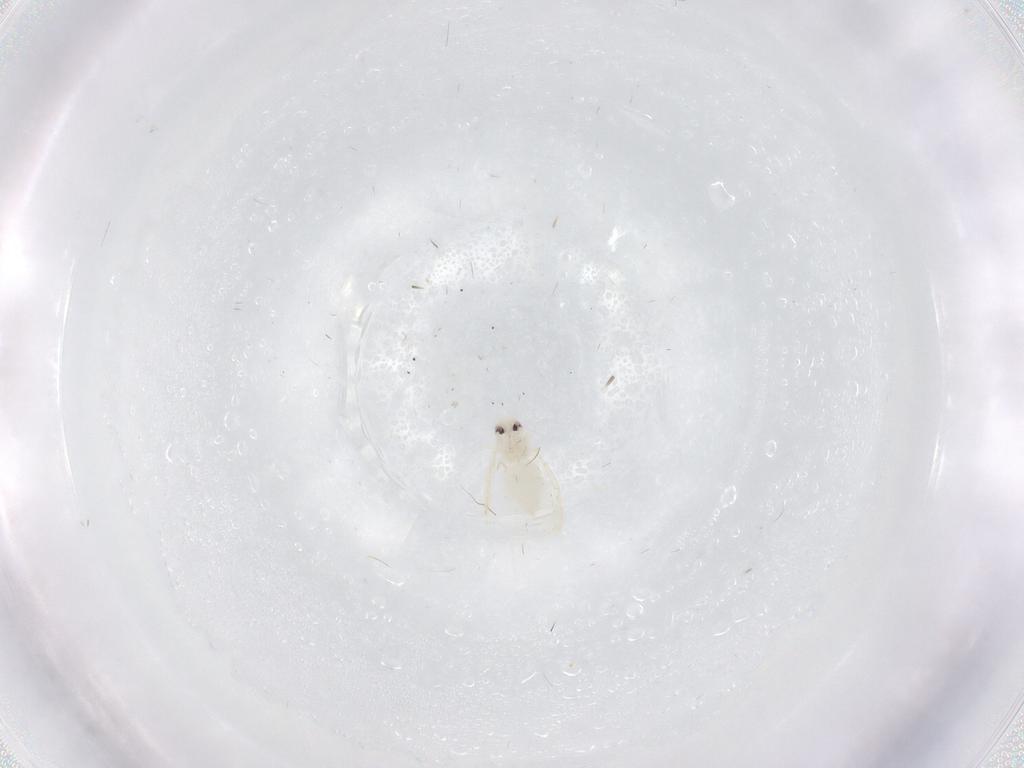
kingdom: Animalia
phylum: Arthropoda
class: Insecta
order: Hemiptera
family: Aleyrodidae
